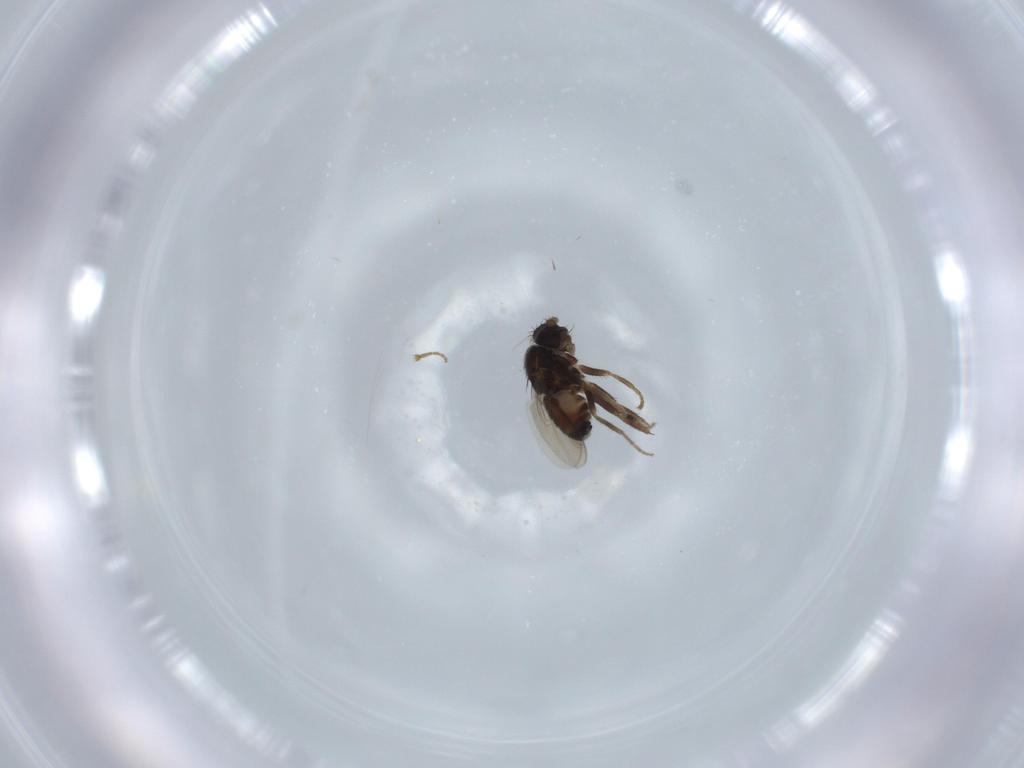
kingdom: Animalia
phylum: Arthropoda
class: Insecta
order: Diptera
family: Sphaeroceridae
